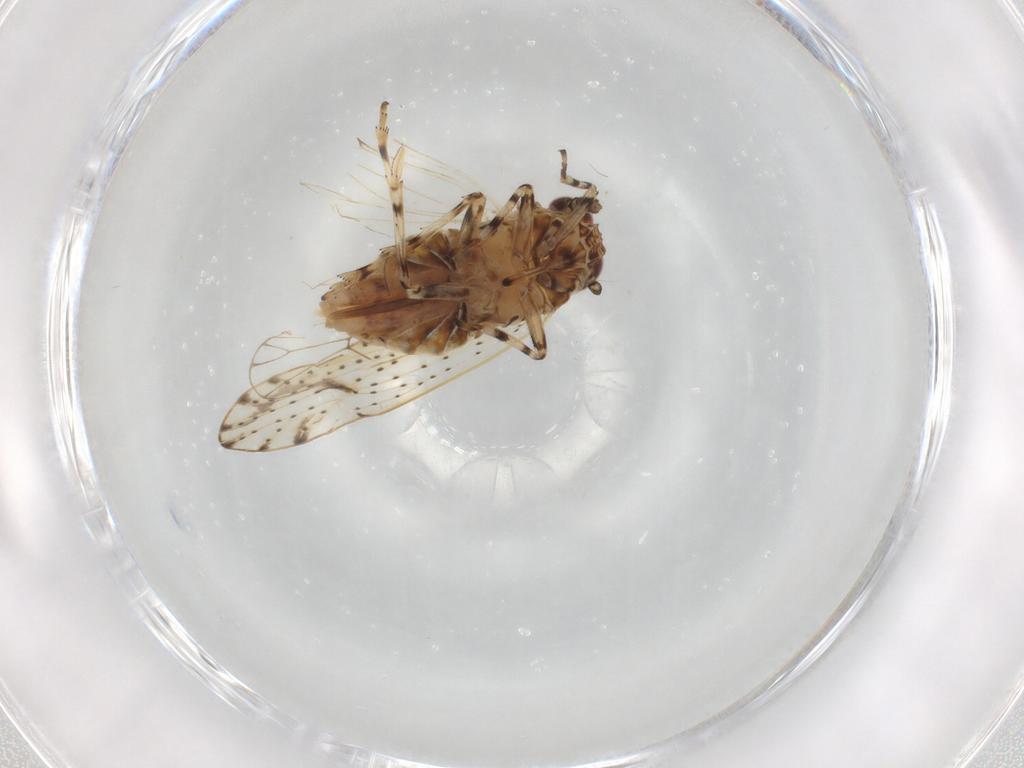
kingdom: Animalia
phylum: Arthropoda
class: Insecta
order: Hemiptera
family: Delphacidae
